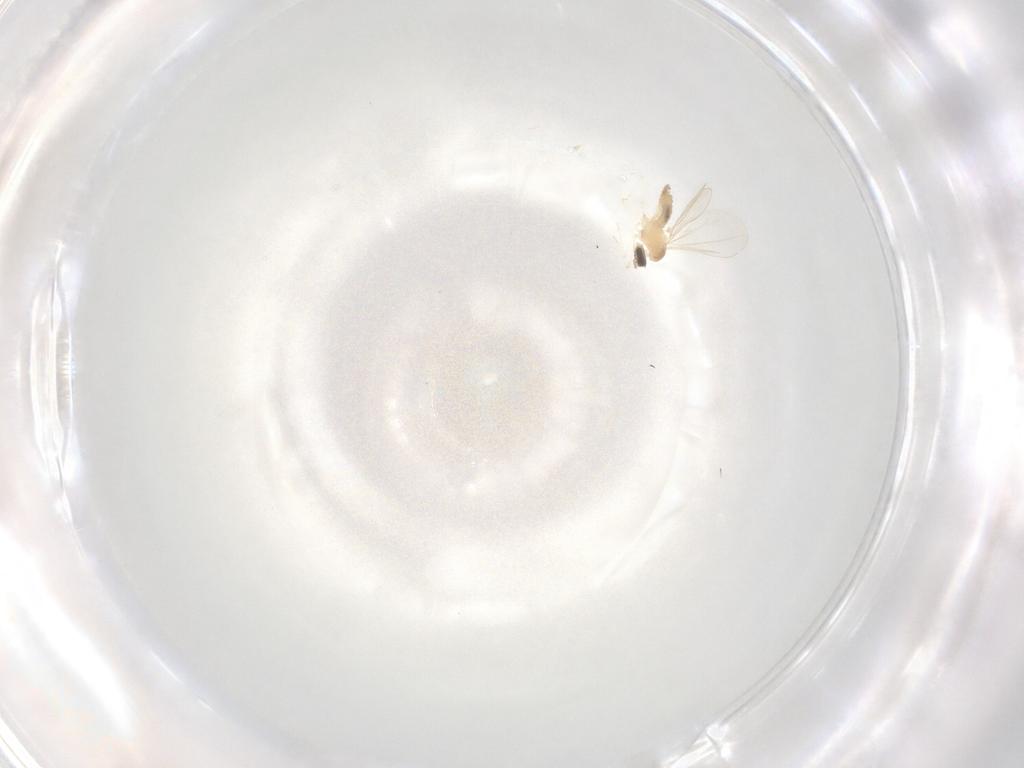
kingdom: Animalia
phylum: Arthropoda
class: Insecta
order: Diptera
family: Cecidomyiidae
